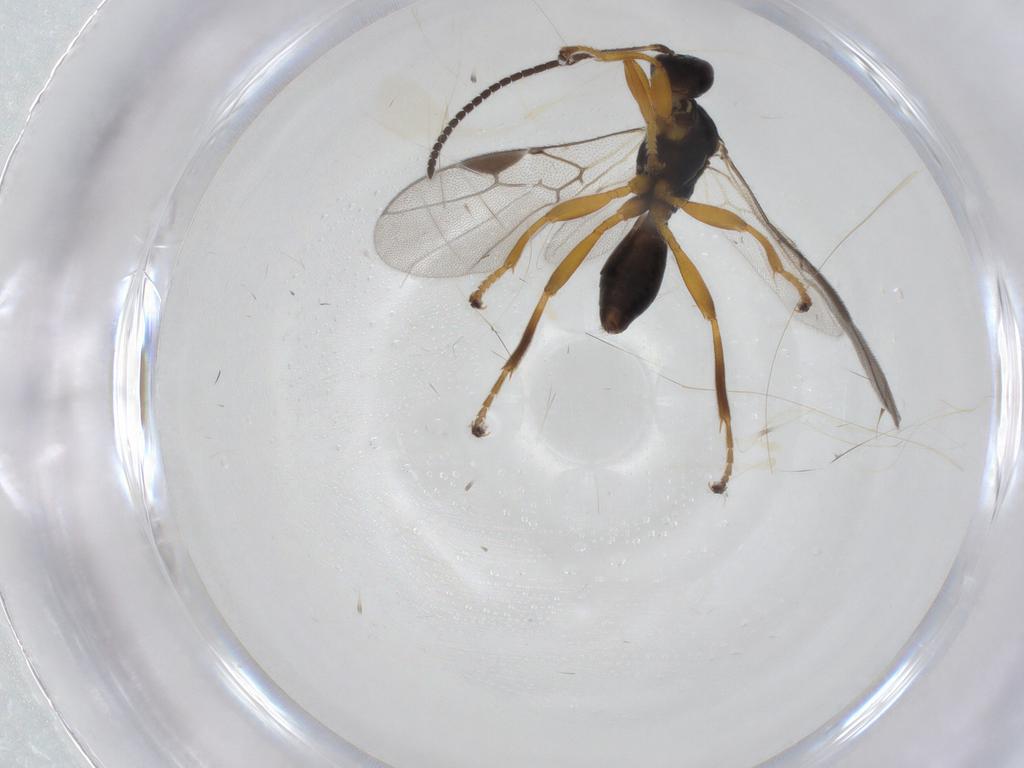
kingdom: Animalia
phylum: Arthropoda
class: Insecta
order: Hymenoptera
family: Braconidae
